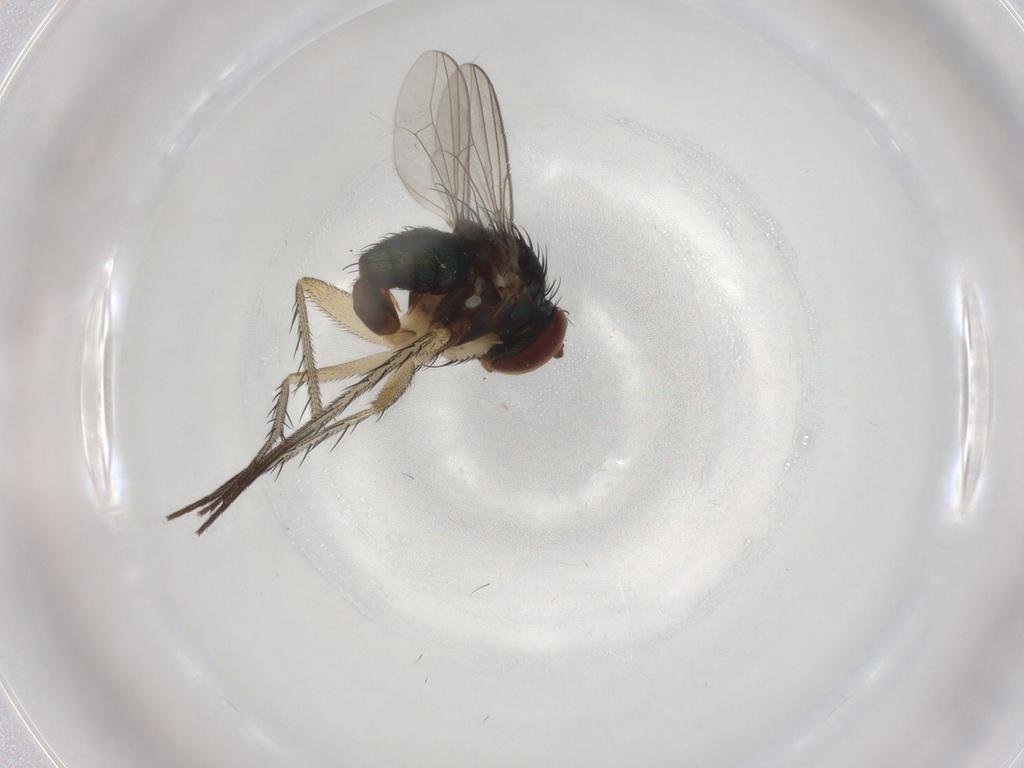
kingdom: Animalia
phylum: Arthropoda
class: Insecta
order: Diptera
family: Dolichopodidae
